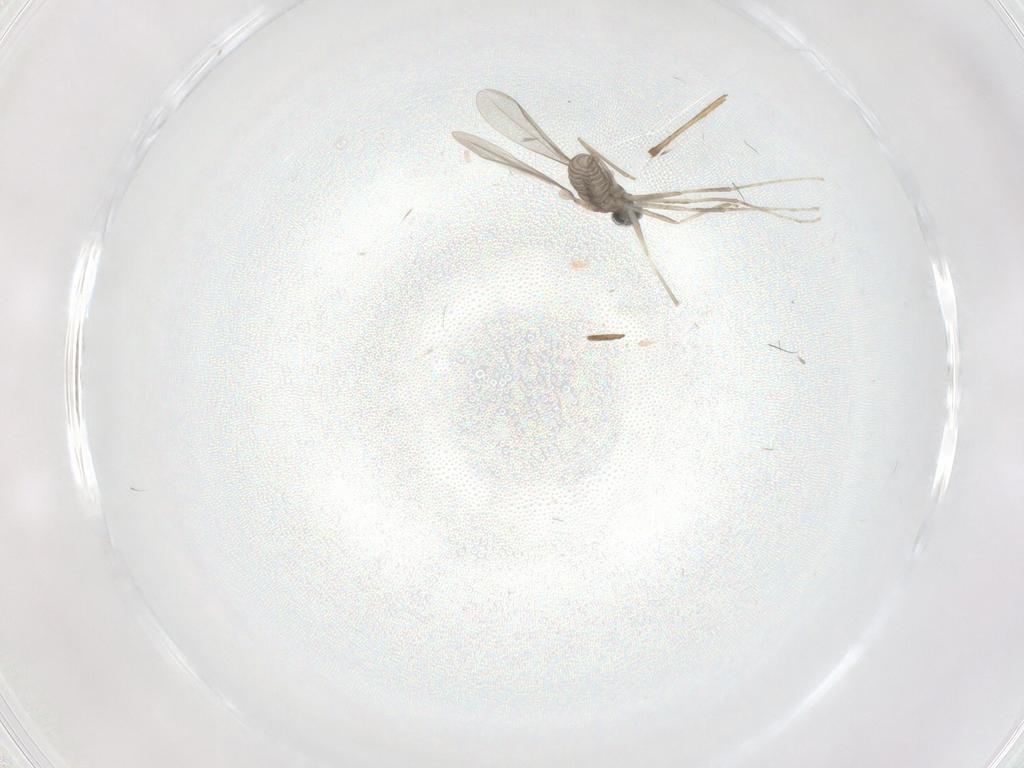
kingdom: Animalia
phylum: Arthropoda
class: Insecta
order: Diptera
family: Cecidomyiidae
